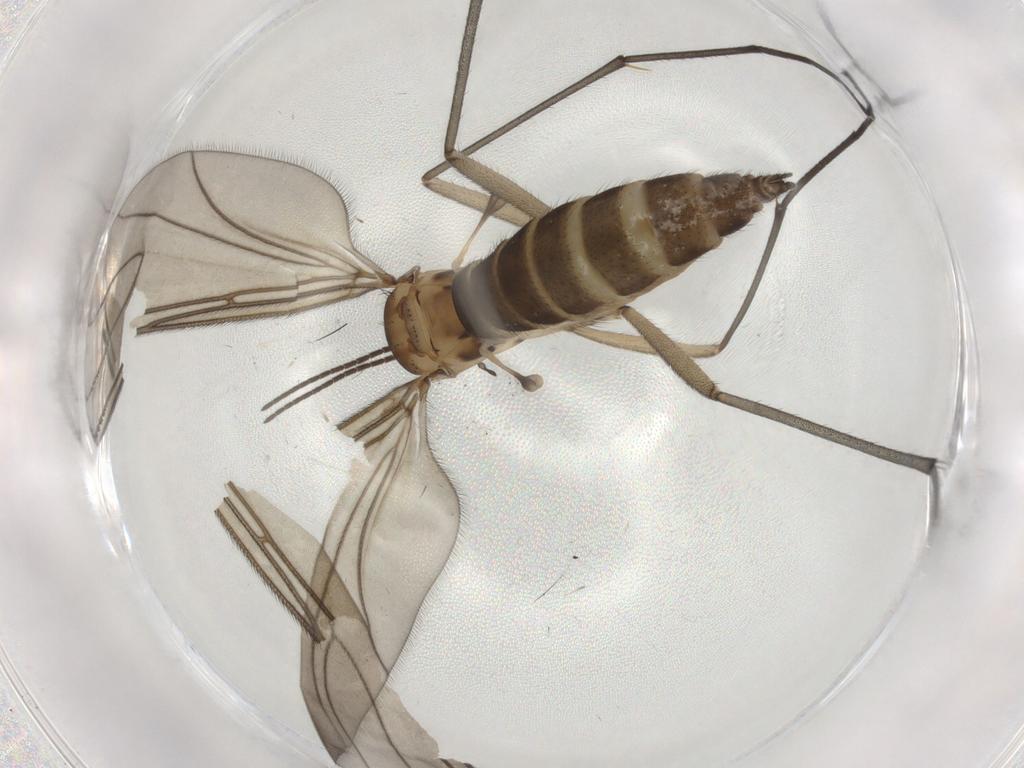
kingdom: Animalia
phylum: Arthropoda
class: Insecta
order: Diptera
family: Sciaridae
